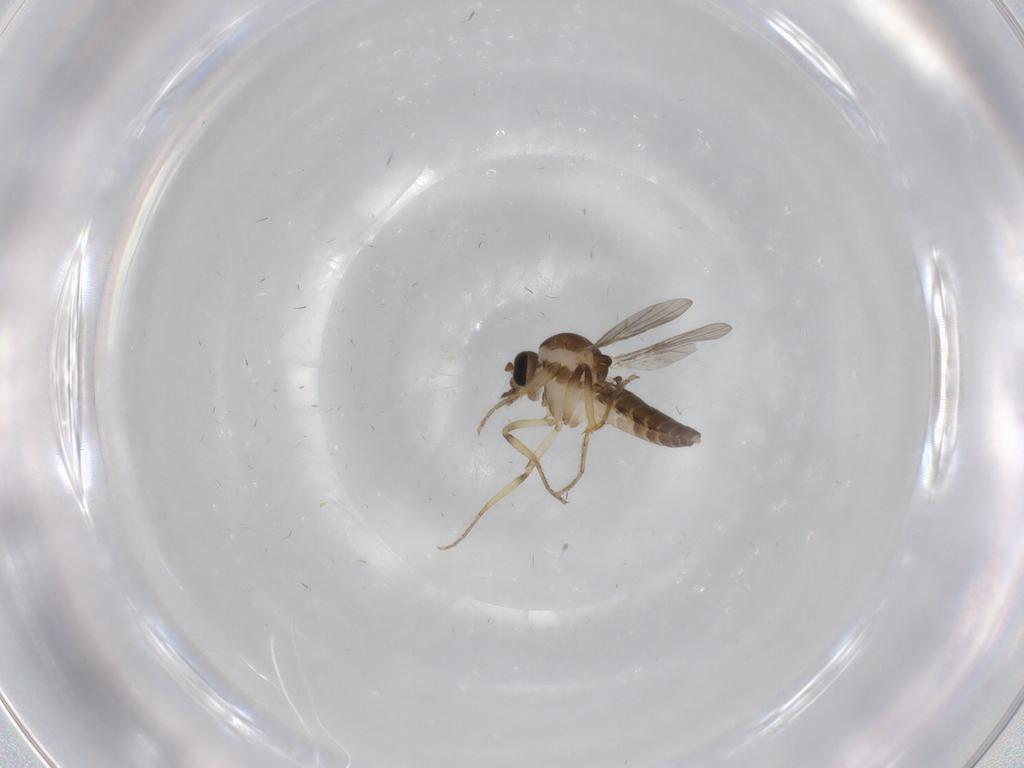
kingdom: Animalia
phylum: Arthropoda
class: Insecta
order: Diptera
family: Ceratopogonidae
